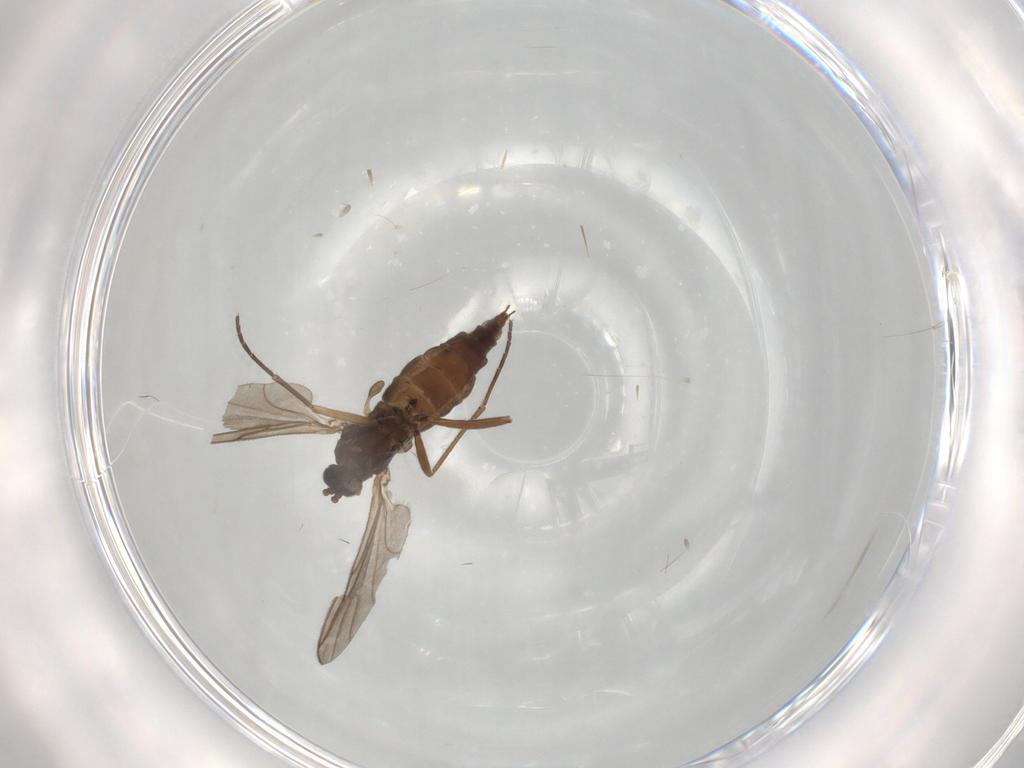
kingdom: Animalia
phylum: Arthropoda
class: Insecta
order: Diptera
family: Sciaridae
